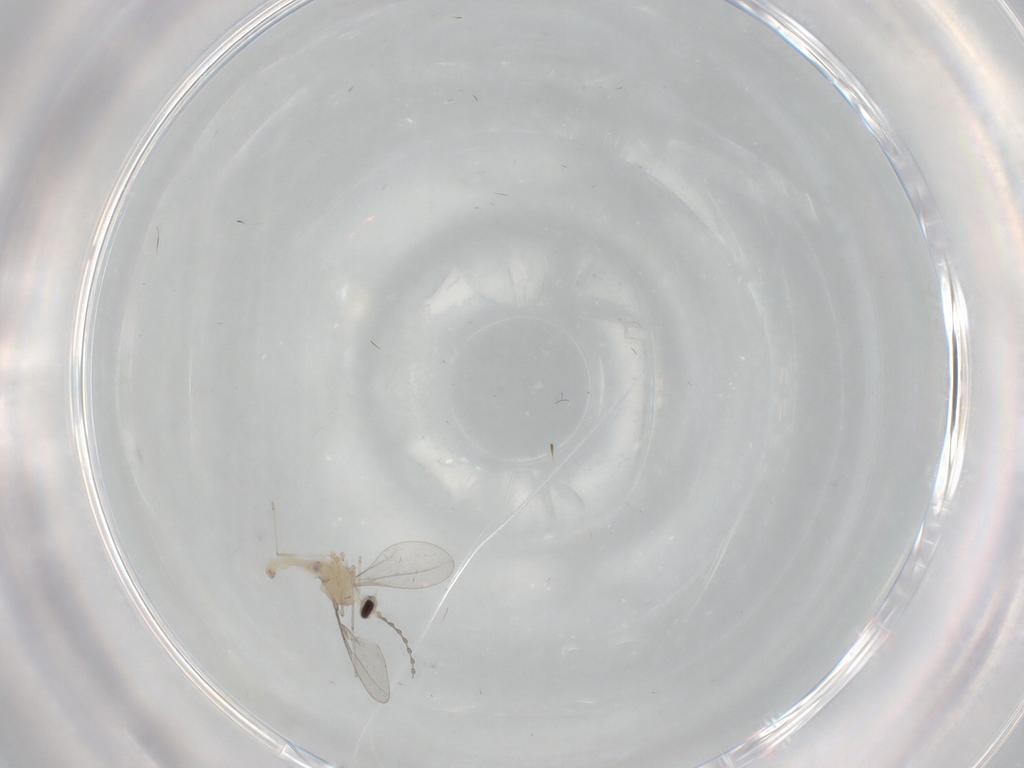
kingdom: Animalia
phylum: Arthropoda
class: Insecta
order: Diptera
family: Cecidomyiidae
